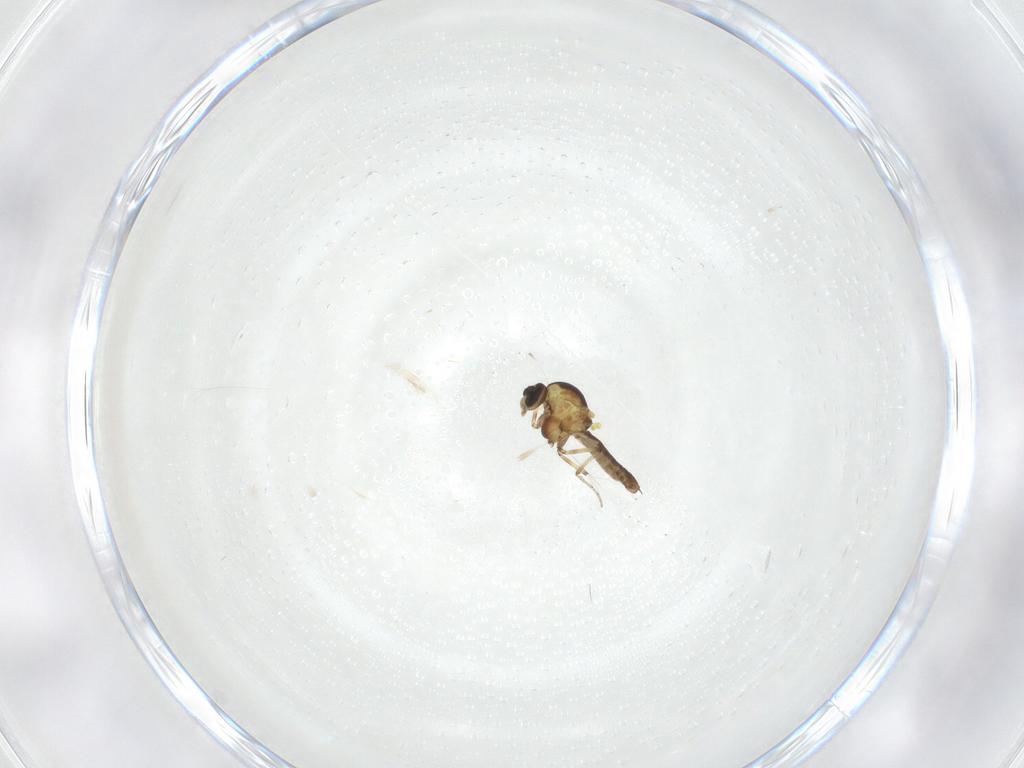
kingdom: Animalia
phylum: Arthropoda
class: Insecta
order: Diptera
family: Ceratopogonidae
